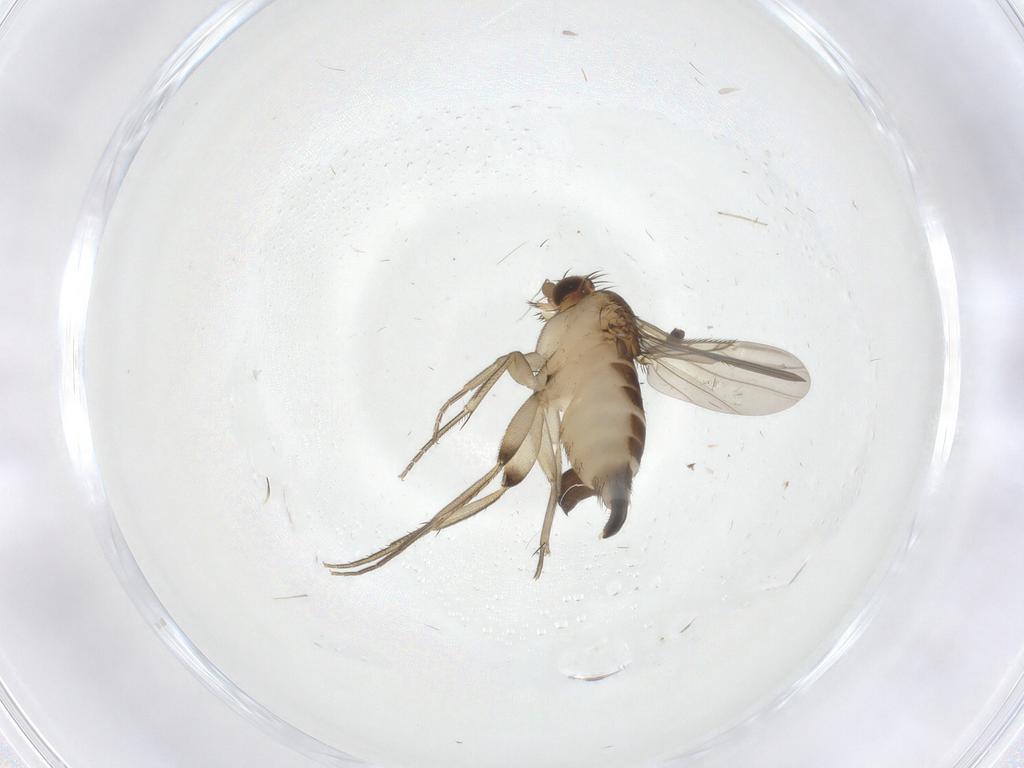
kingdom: Animalia
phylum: Arthropoda
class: Insecta
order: Diptera
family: Phoridae
